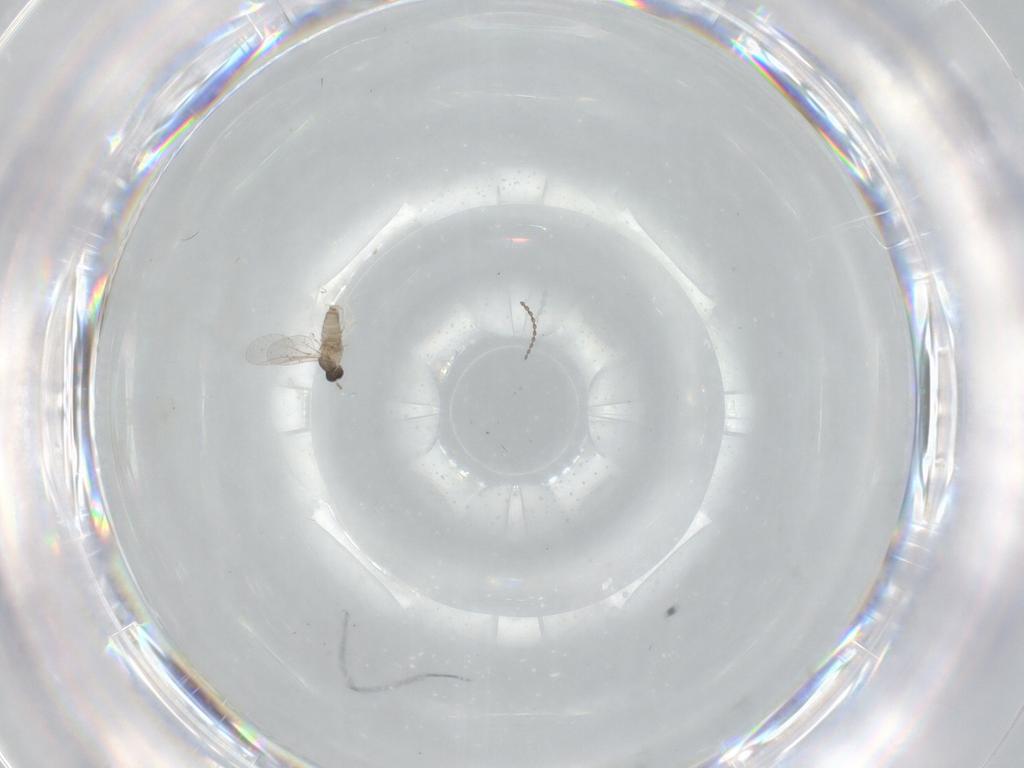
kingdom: Animalia
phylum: Arthropoda
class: Insecta
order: Diptera
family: Cecidomyiidae
